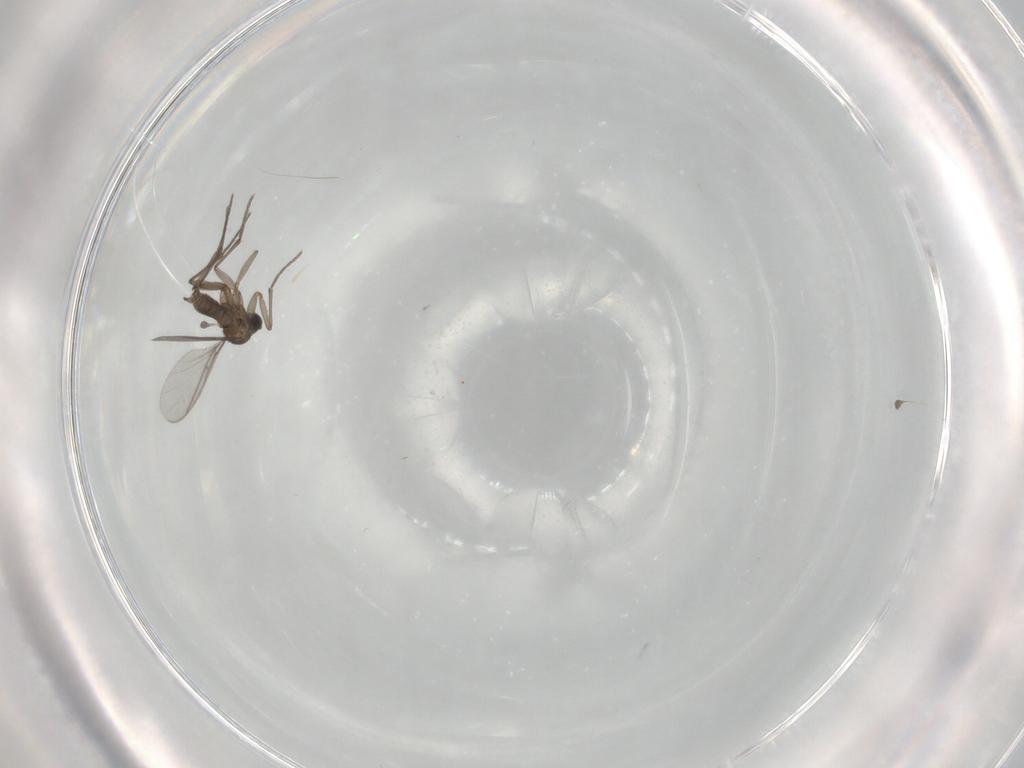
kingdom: Animalia
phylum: Arthropoda
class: Insecta
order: Diptera
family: Sciaridae
